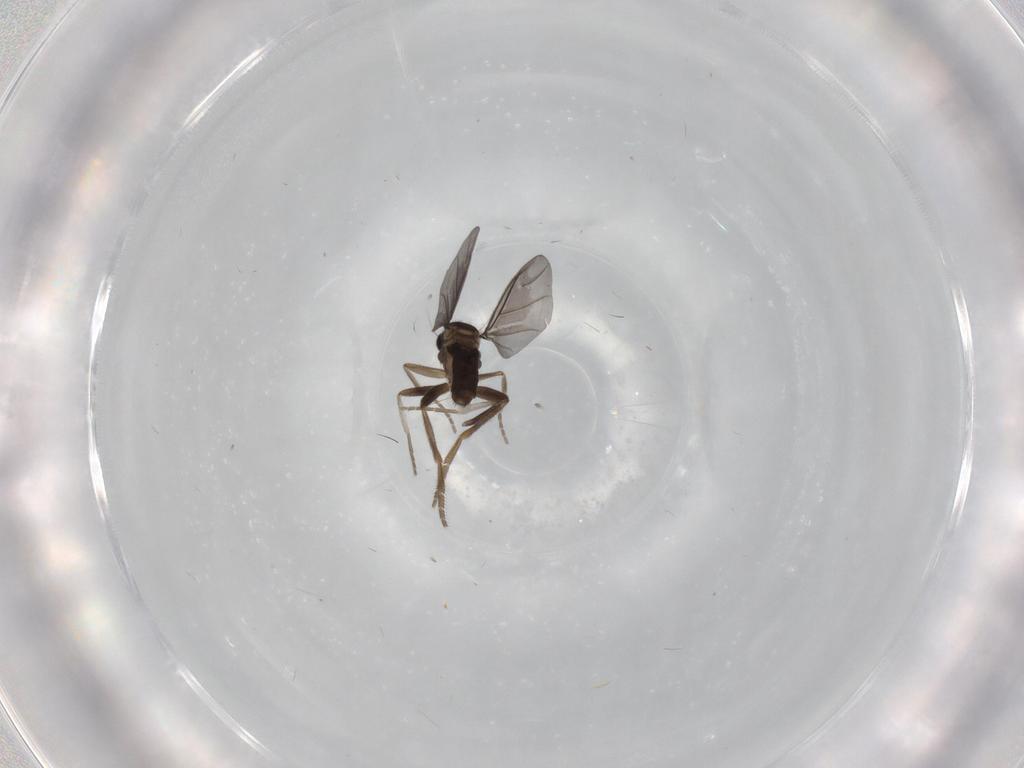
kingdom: Animalia
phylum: Arthropoda
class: Insecta
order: Diptera
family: Phoridae
